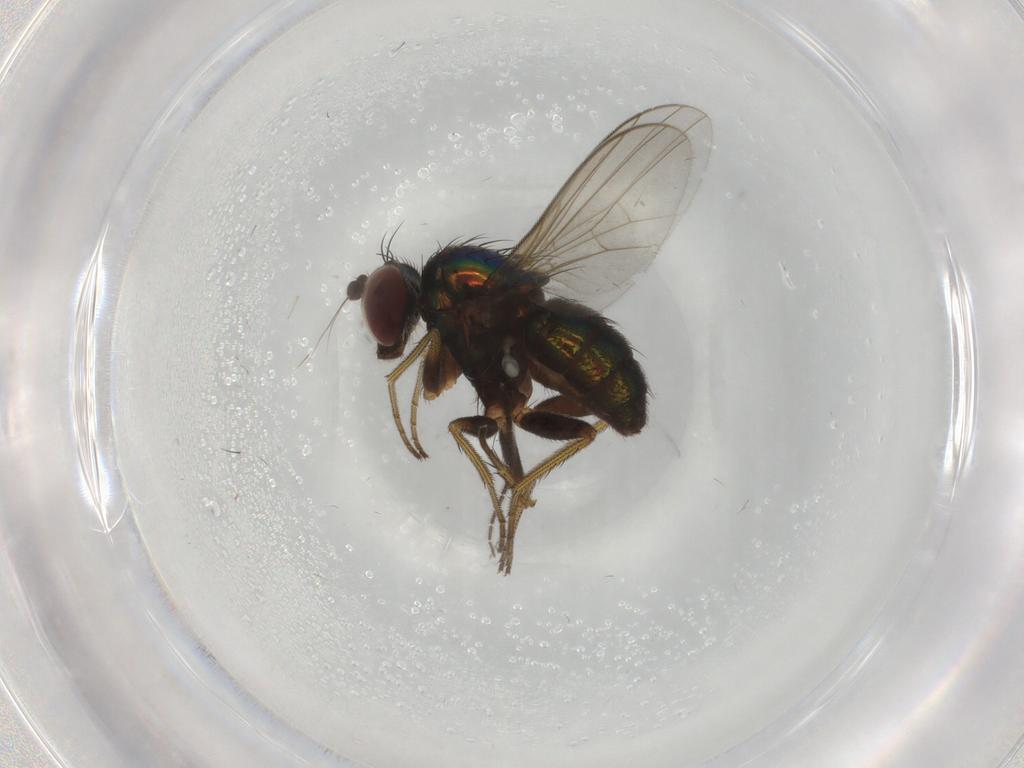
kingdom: Animalia
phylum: Arthropoda
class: Insecta
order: Diptera
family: Dolichopodidae
